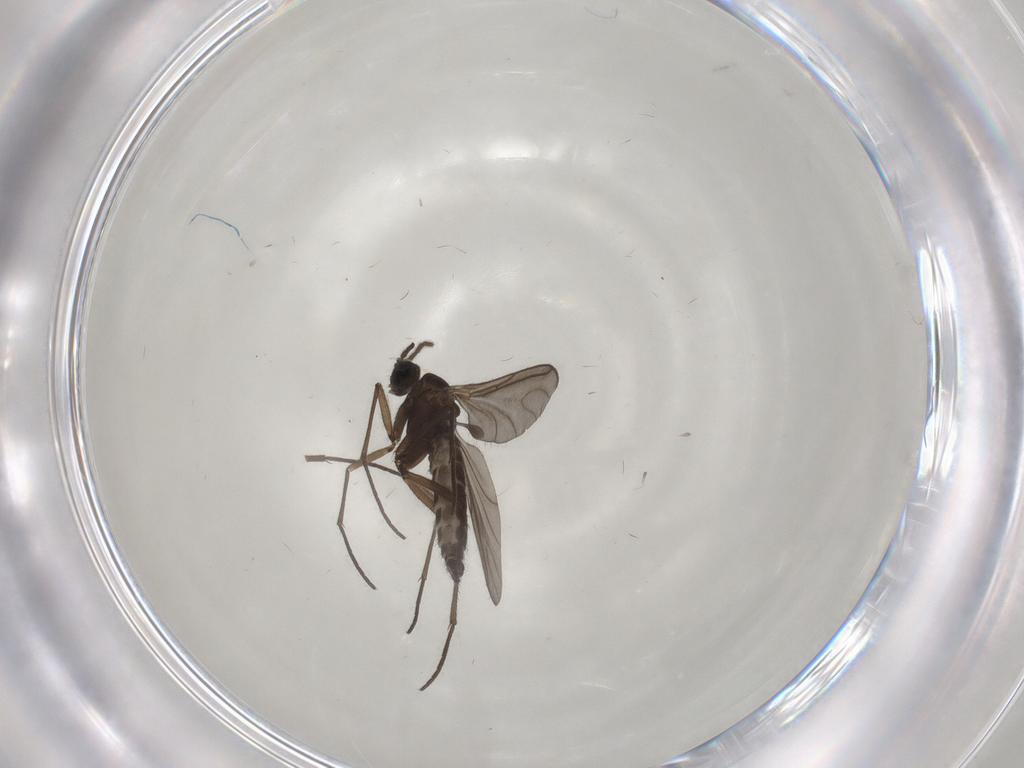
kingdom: Animalia
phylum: Arthropoda
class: Insecta
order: Diptera
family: Sciaridae
